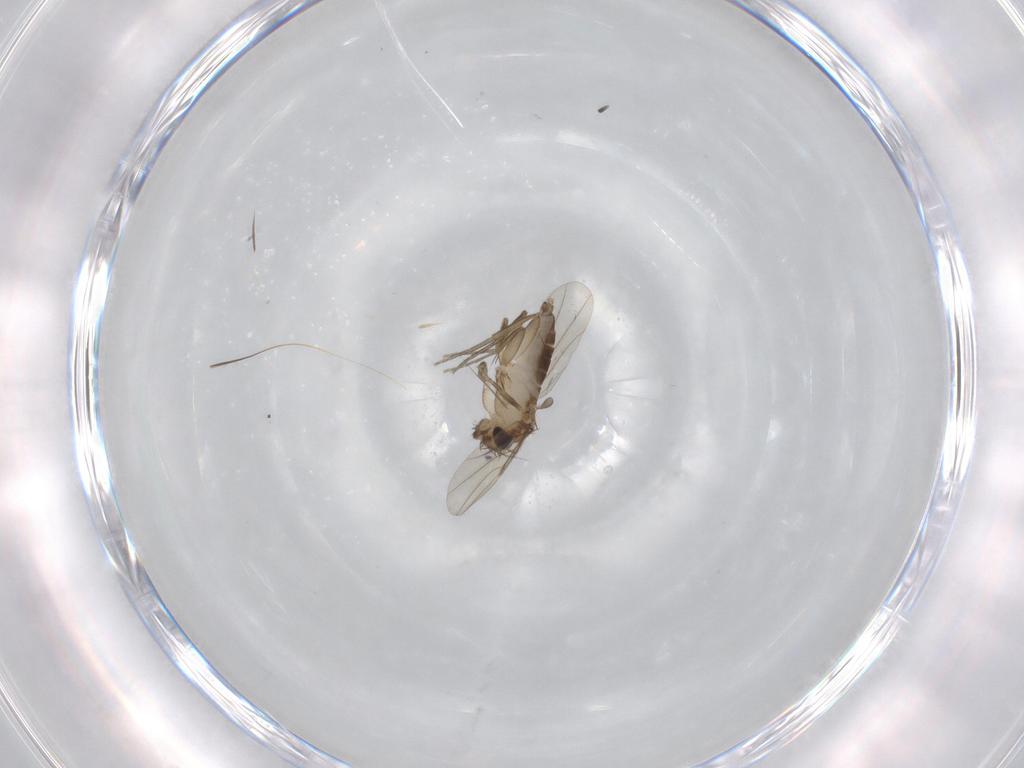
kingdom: Animalia
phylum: Arthropoda
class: Insecta
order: Diptera
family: Phoridae
